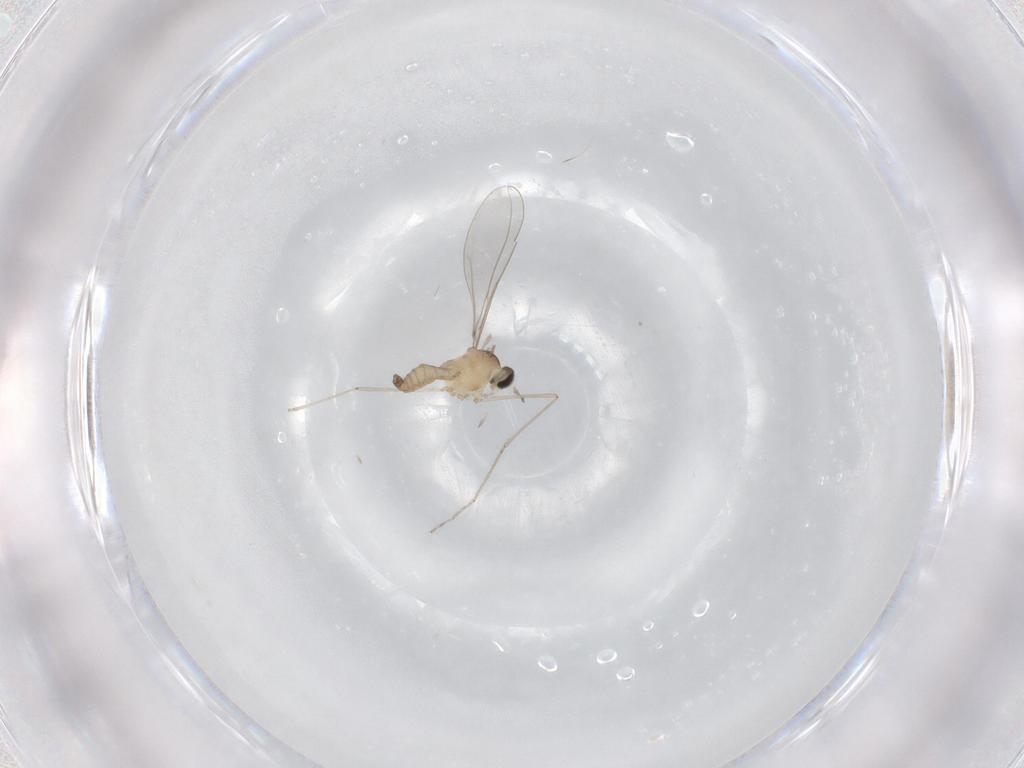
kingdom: Animalia
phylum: Arthropoda
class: Insecta
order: Diptera
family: Cecidomyiidae
